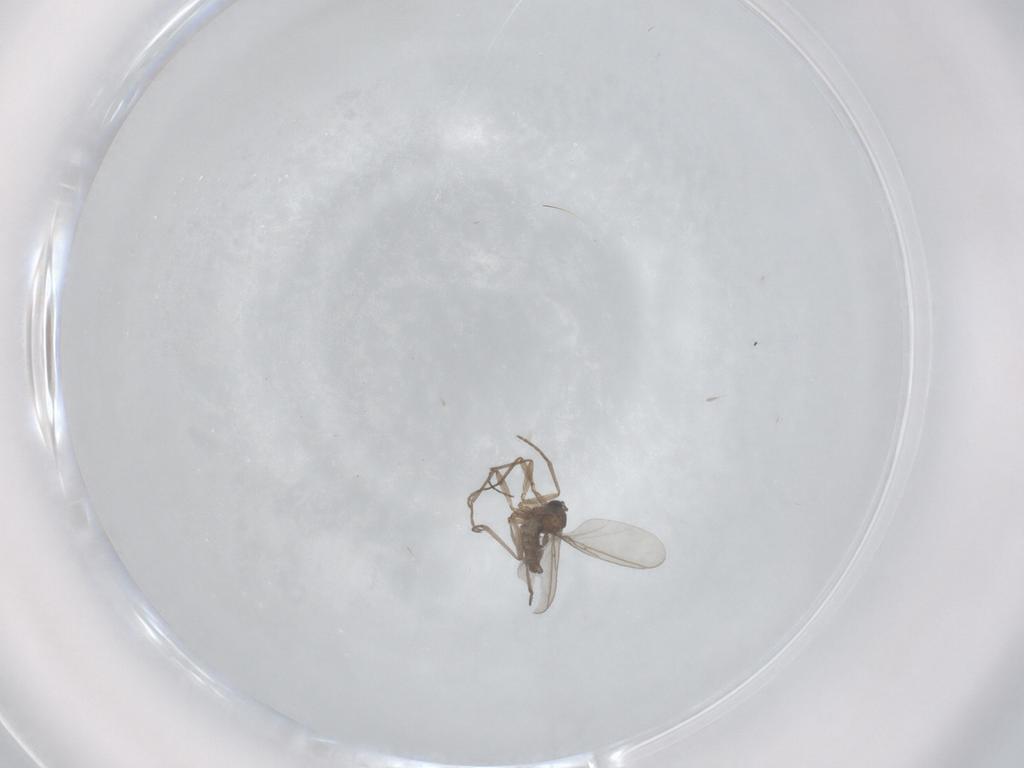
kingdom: Animalia
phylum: Arthropoda
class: Insecta
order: Diptera
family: Sciaridae
